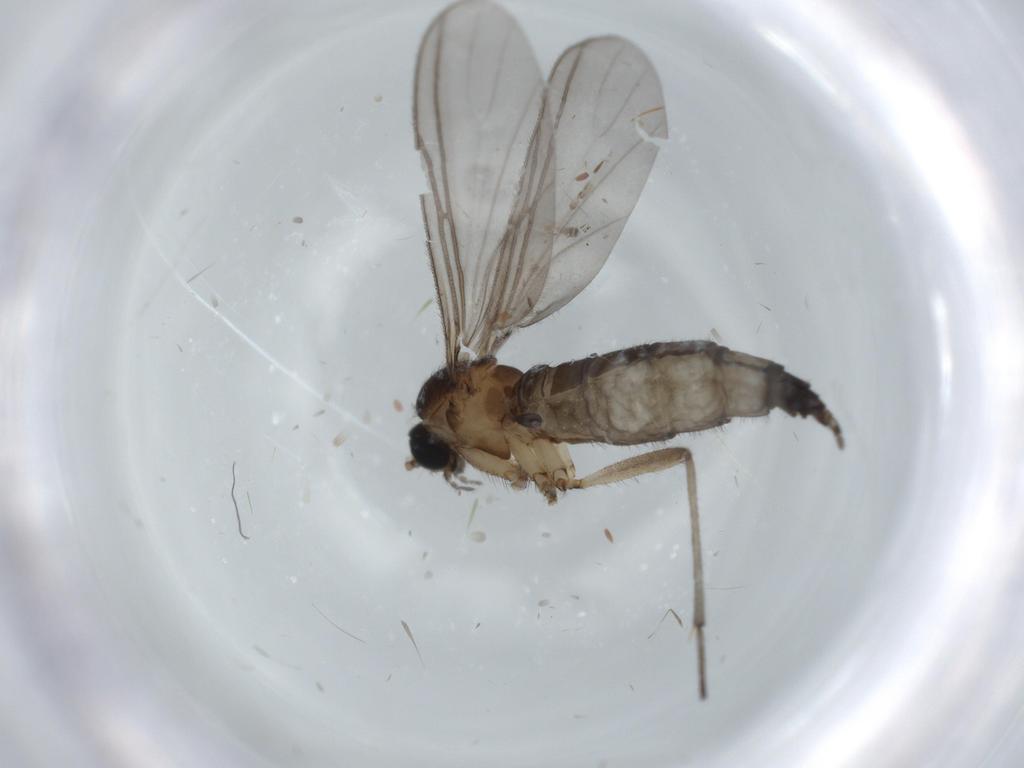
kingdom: Animalia
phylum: Arthropoda
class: Insecta
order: Diptera
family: Sciaridae
